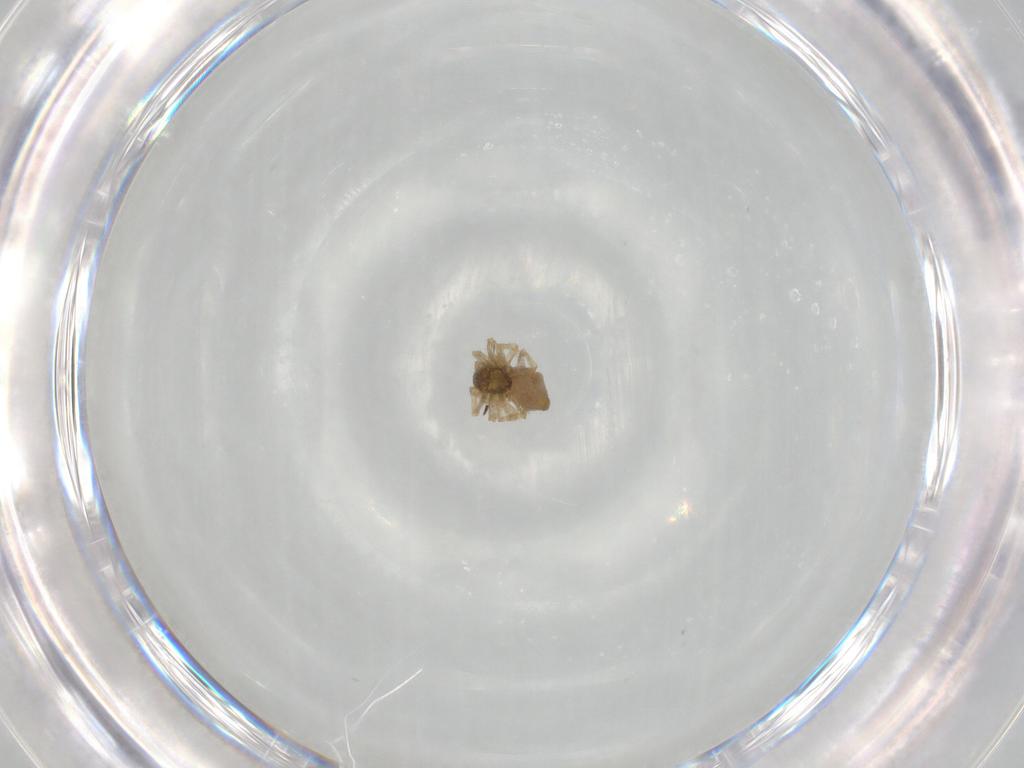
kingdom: Animalia
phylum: Arthropoda
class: Arachnida
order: Araneae
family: Linyphiidae
